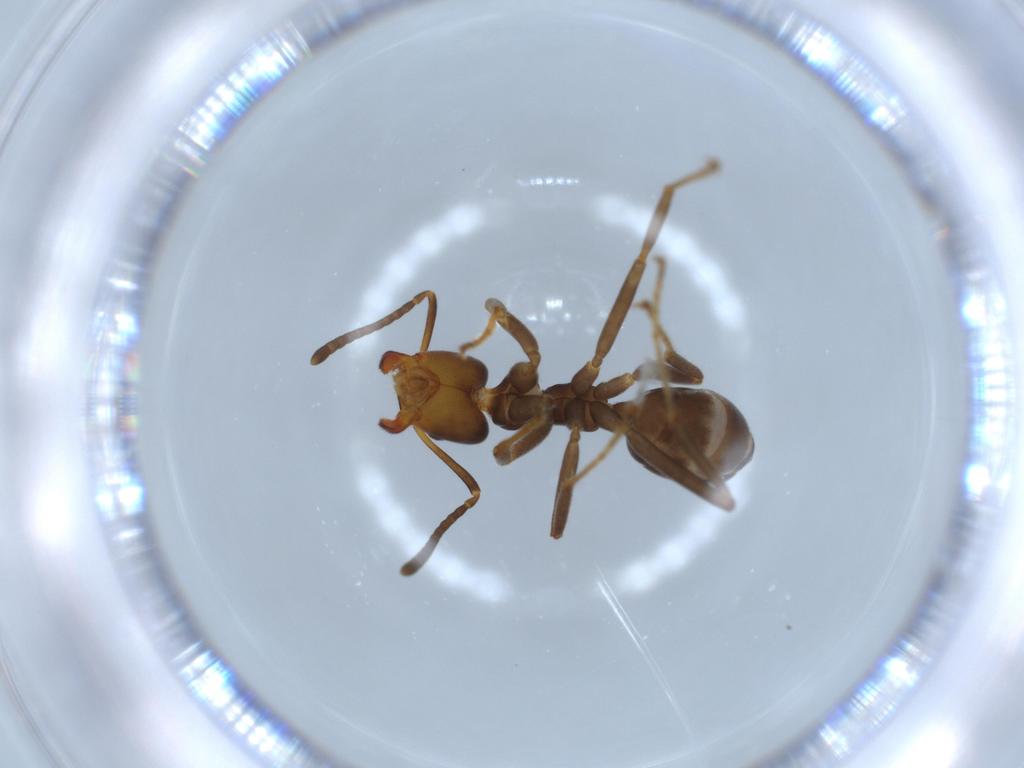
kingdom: Animalia
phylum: Arthropoda
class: Insecta
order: Hymenoptera
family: Formicidae
